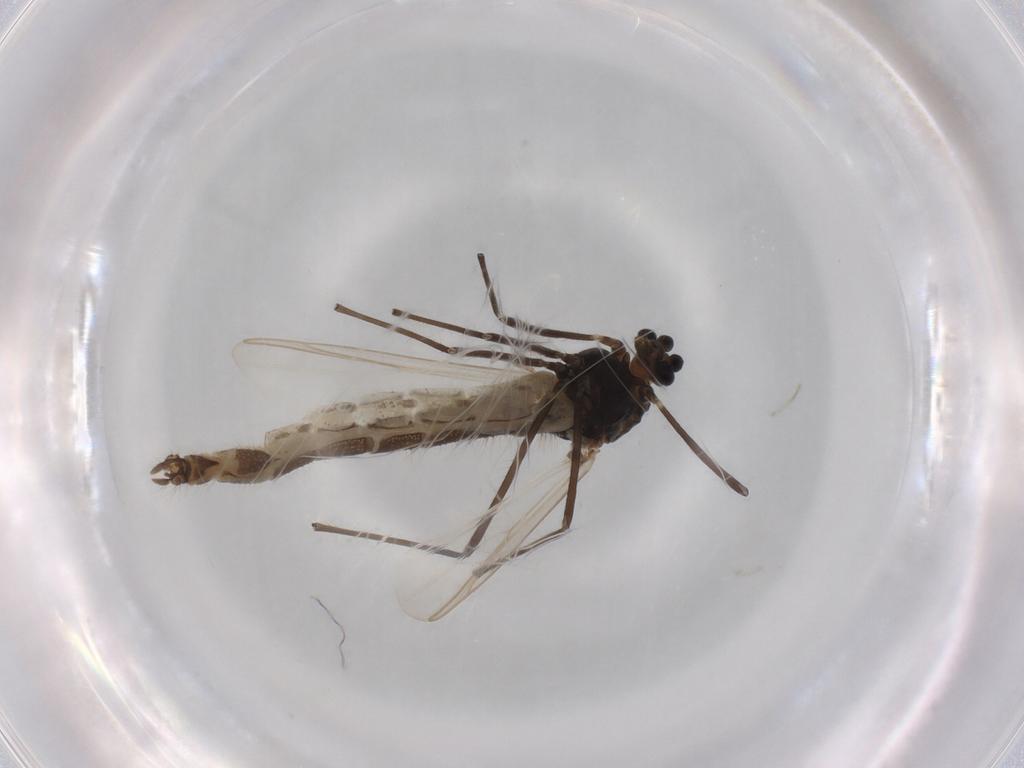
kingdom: Animalia
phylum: Arthropoda
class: Insecta
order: Diptera
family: Chironomidae
